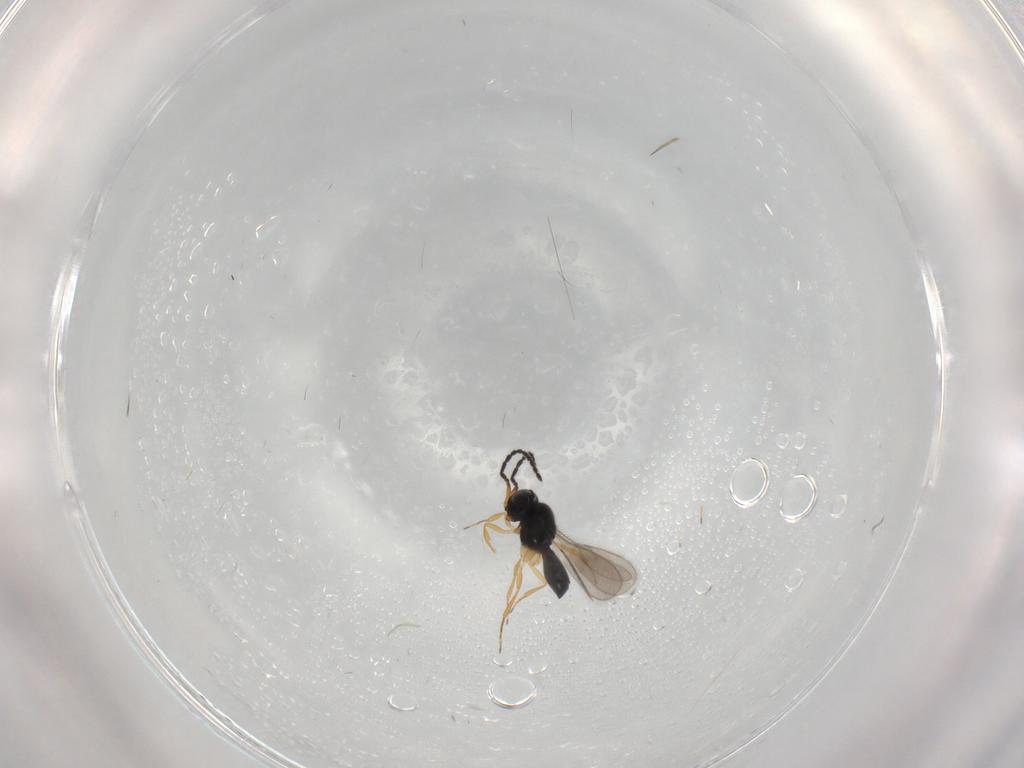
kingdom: Animalia
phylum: Arthropoda
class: Insecta
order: Hymenoptera
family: Scelionidae
